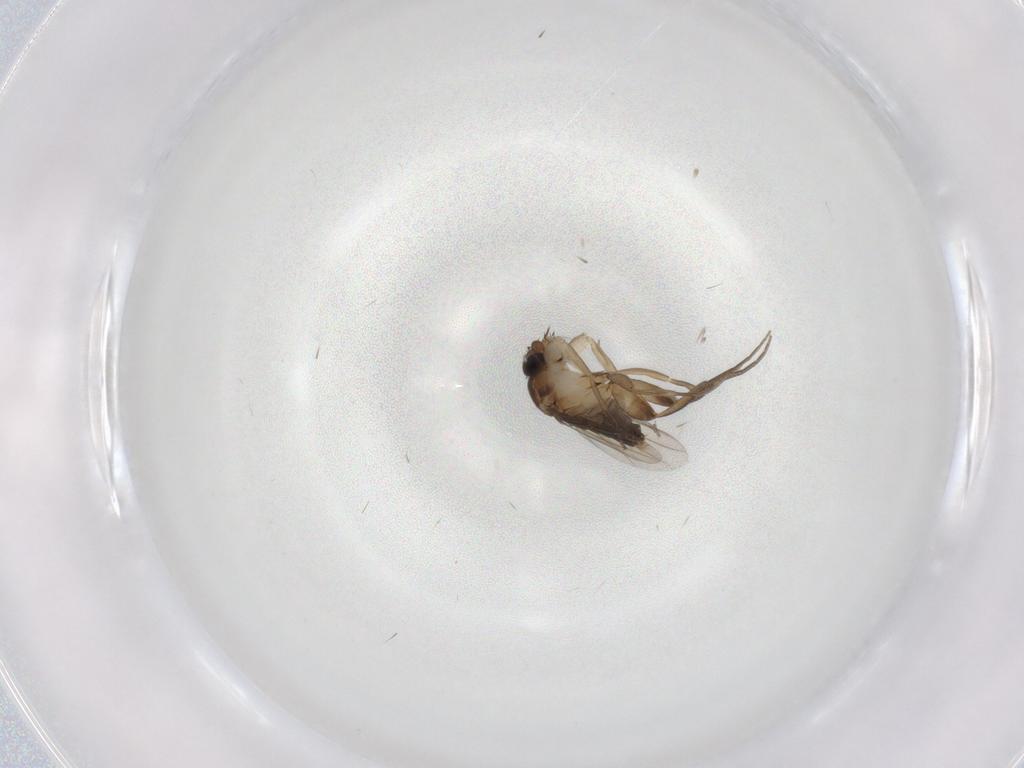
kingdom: Animalia
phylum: Arthropoda
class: Insecta
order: Diptera
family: Phoridae
